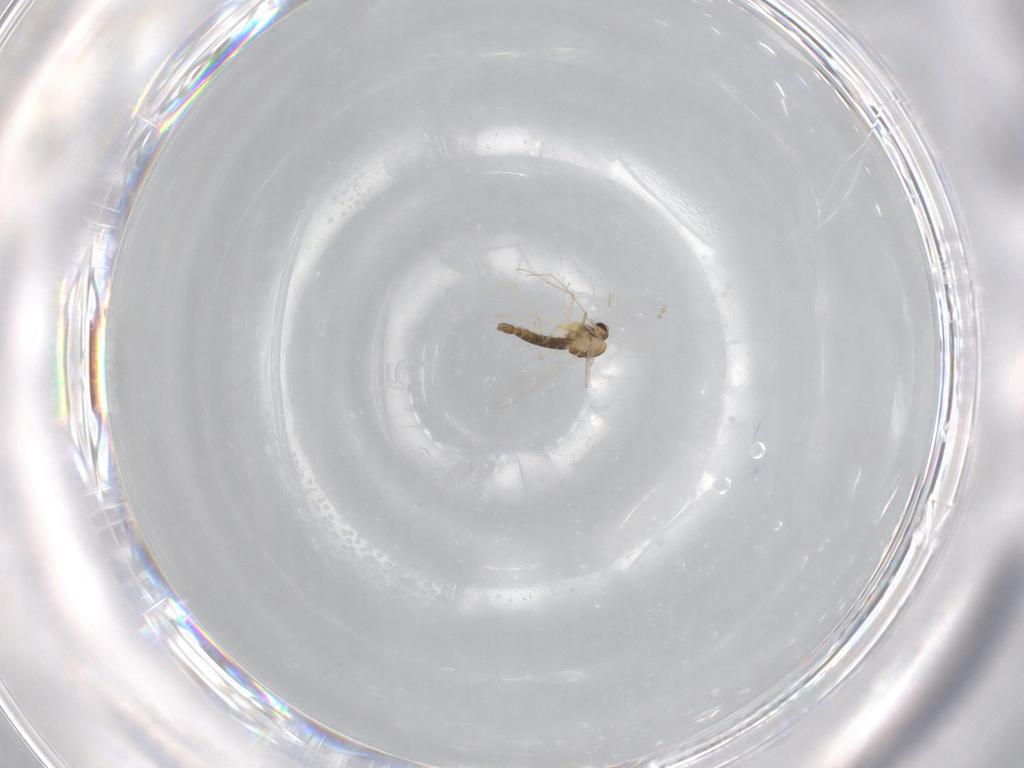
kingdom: Animalia
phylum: Arthropoda
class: Insecta
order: Diptera
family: Chironomidae
